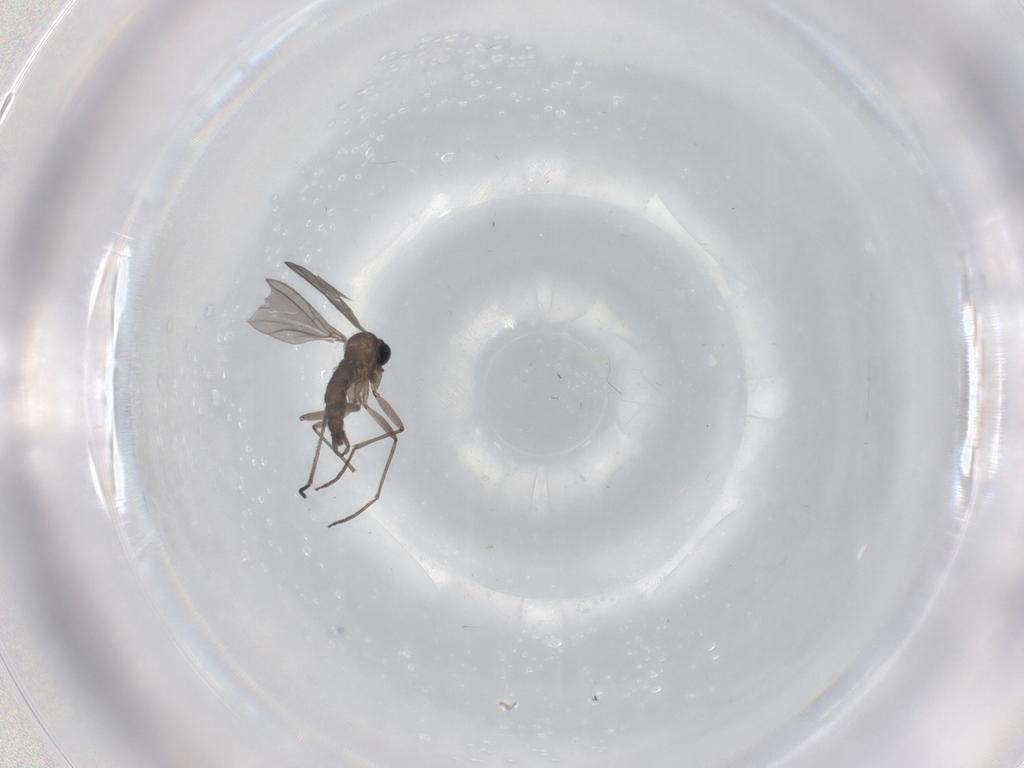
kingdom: Animalia
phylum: Arthropoda
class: Insecta
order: Diptera
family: Sciaridae
